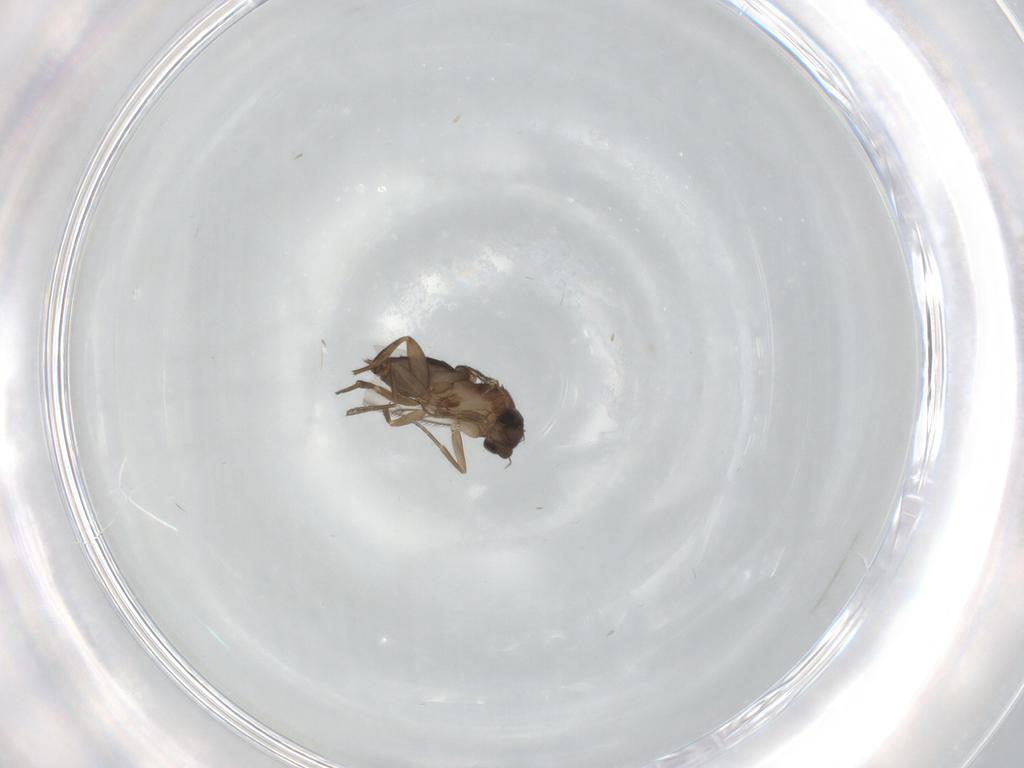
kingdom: Animalia
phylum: Arthropoda
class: Insecta
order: Diptera
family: Phoridae
